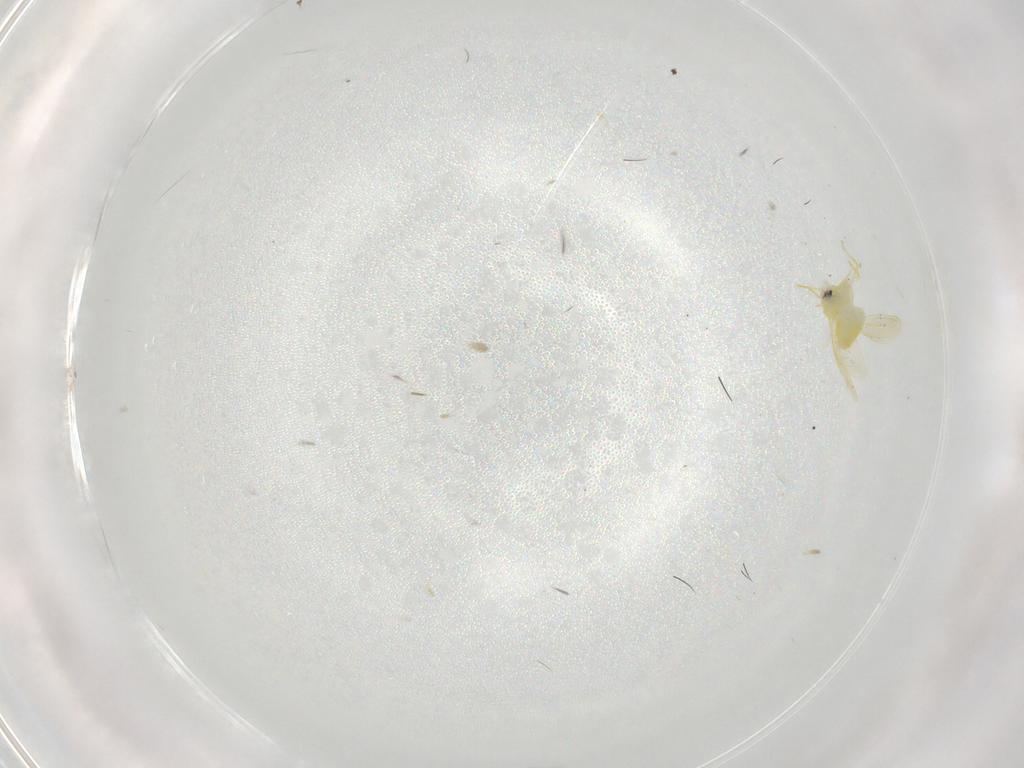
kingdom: Animalia
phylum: Arthropoda
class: Insecta
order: Hemiptera
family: Aleyrodidae
